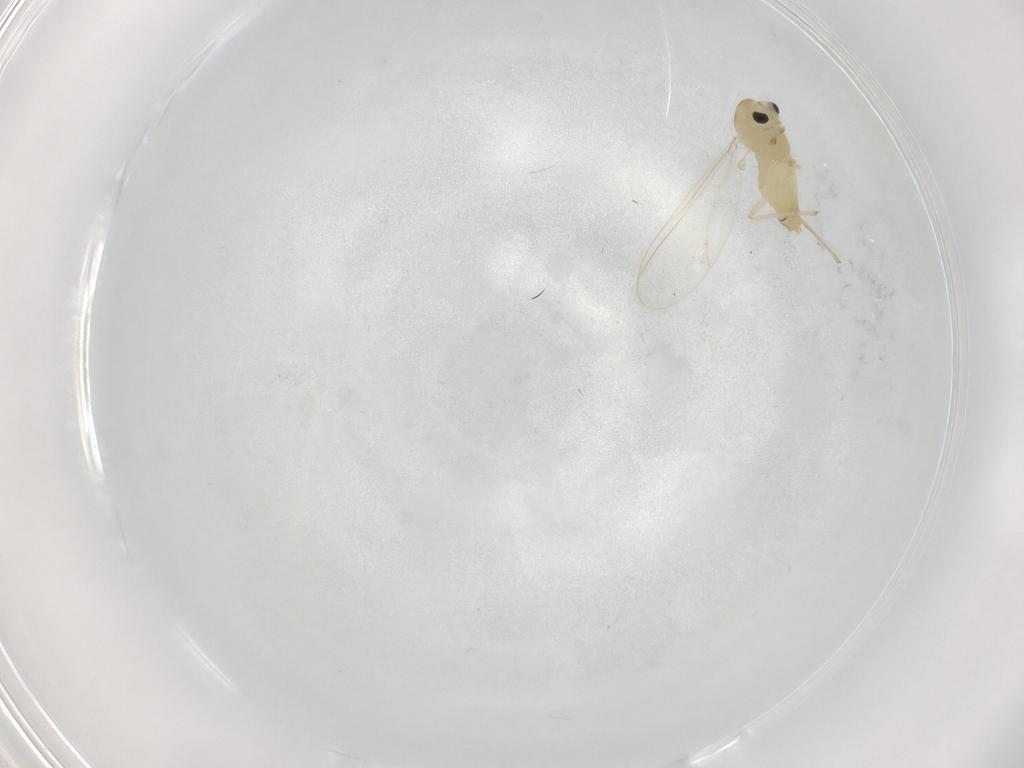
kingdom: Animalia
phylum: Arthropoda
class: Insecta
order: Diptera
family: Chironomidae
